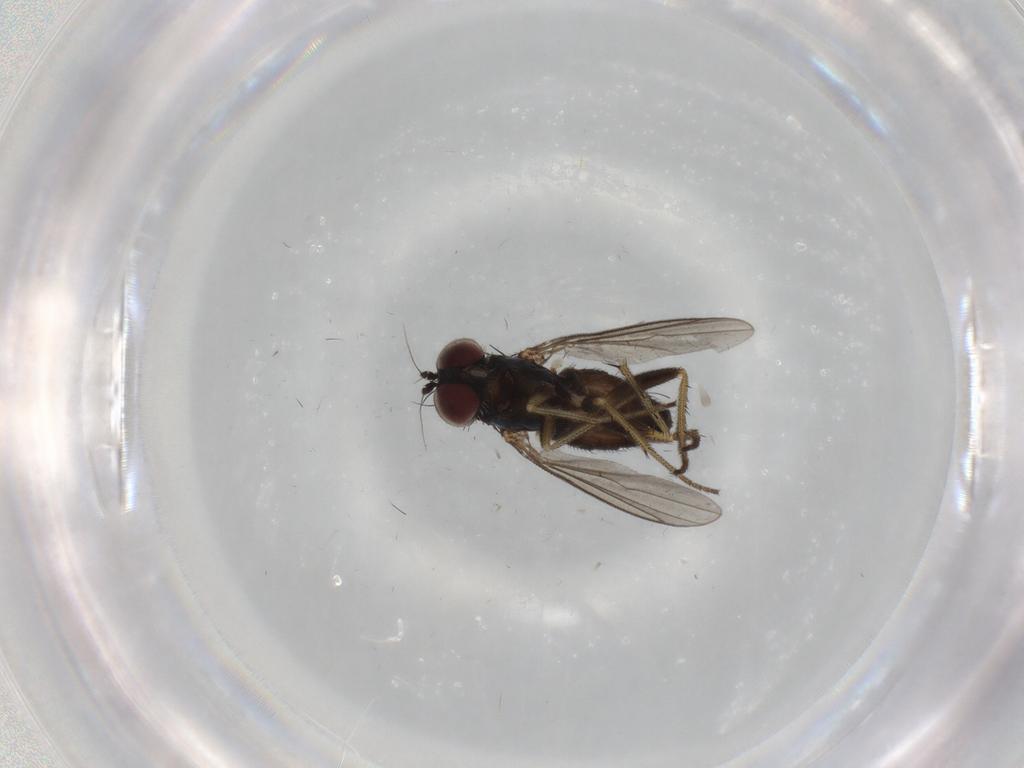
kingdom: Animalia
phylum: Arthropoda
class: Insecta
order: Diptera
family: Dolichopodidae
